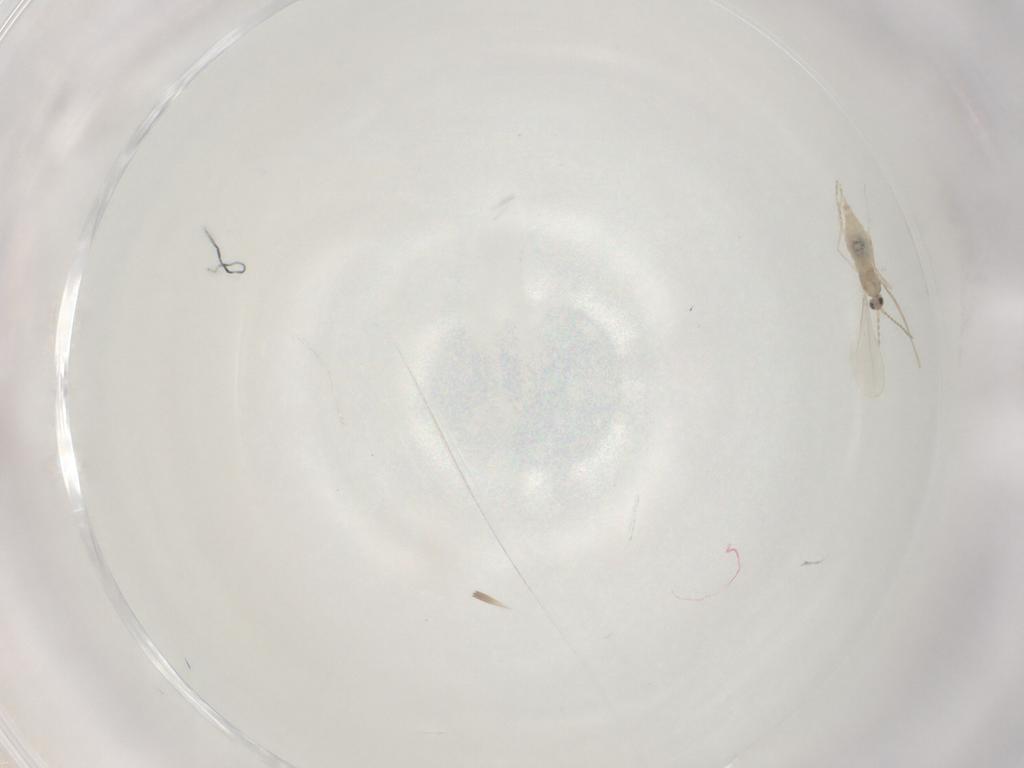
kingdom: Animalia
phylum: Arthropoda
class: Insecta
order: Diptera
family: Cecidomyiidae
